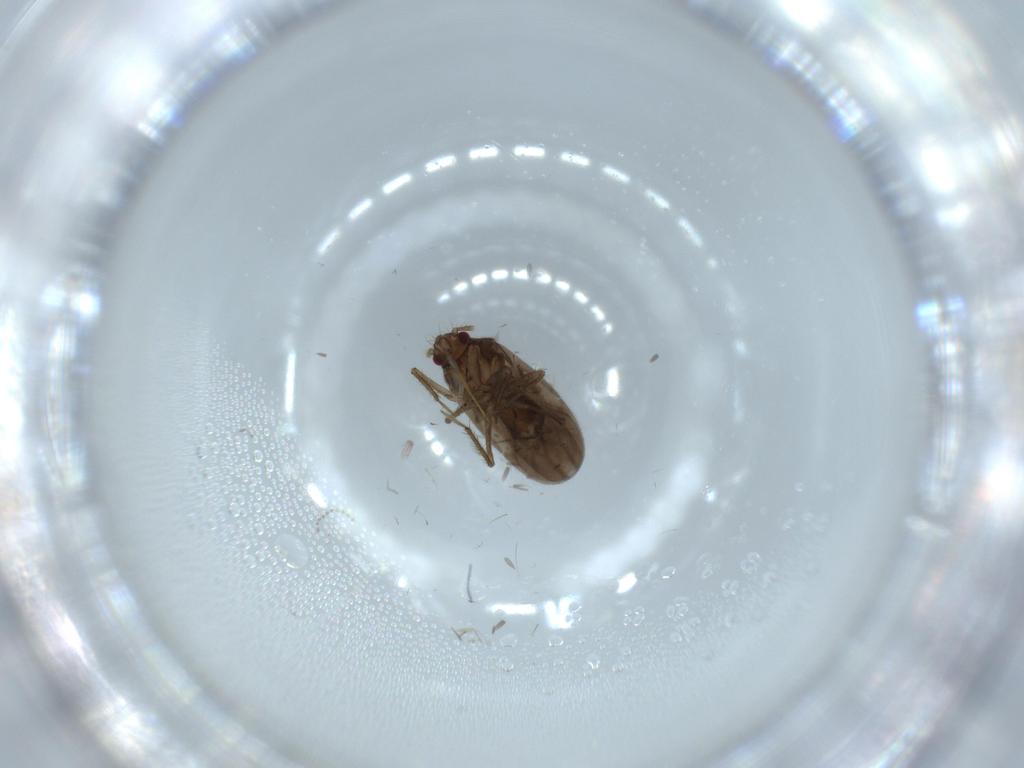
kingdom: Animalia
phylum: Arthropoda
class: Insecta
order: Hemiptera
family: Ceratocombidae
